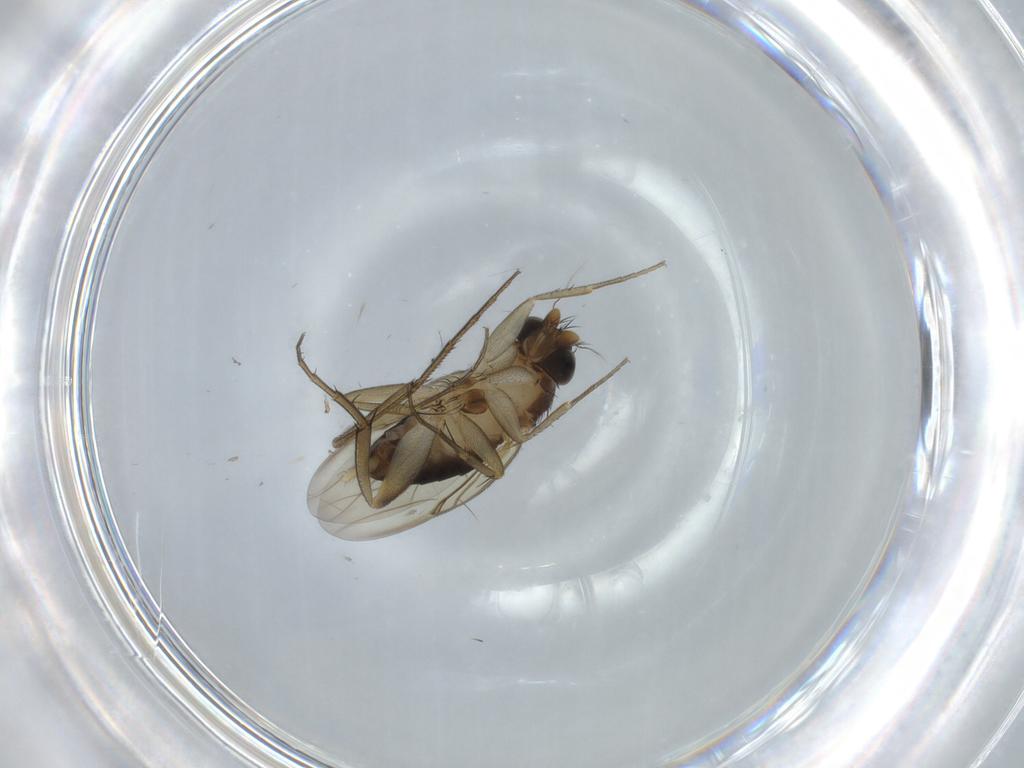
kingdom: Animalia
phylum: Arthropoda
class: Insecta
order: Diptera
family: Phoridae
